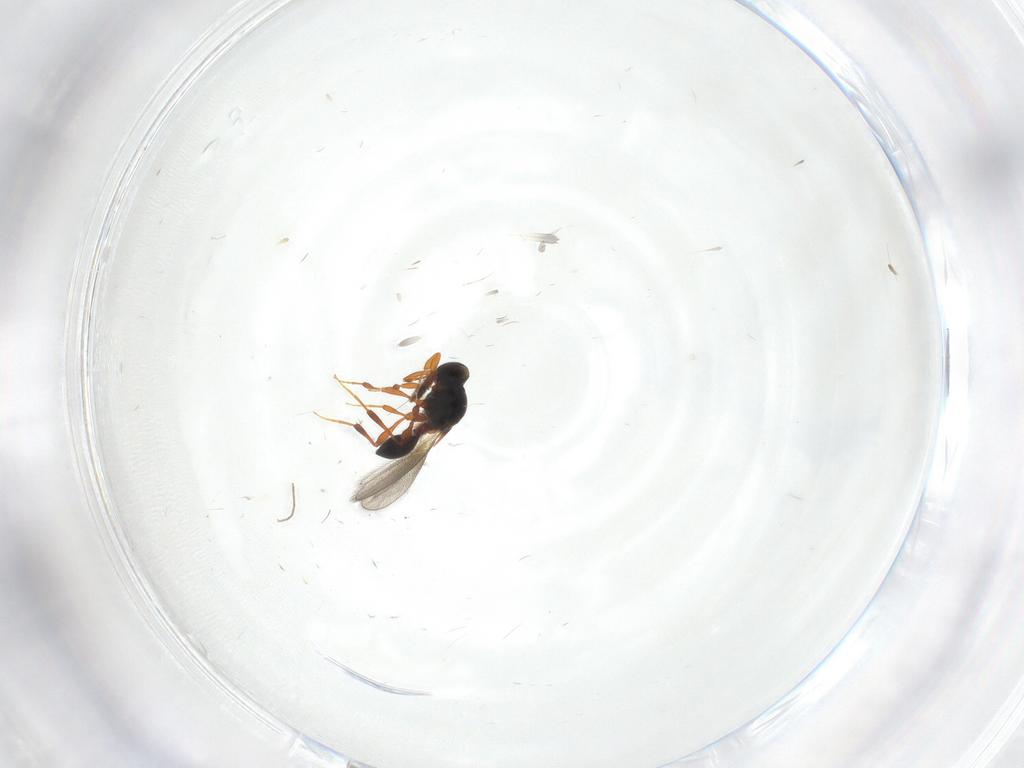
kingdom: Animalia
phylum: Arthropoda
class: Insecta
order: Hymenoptera
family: Platygastridae
